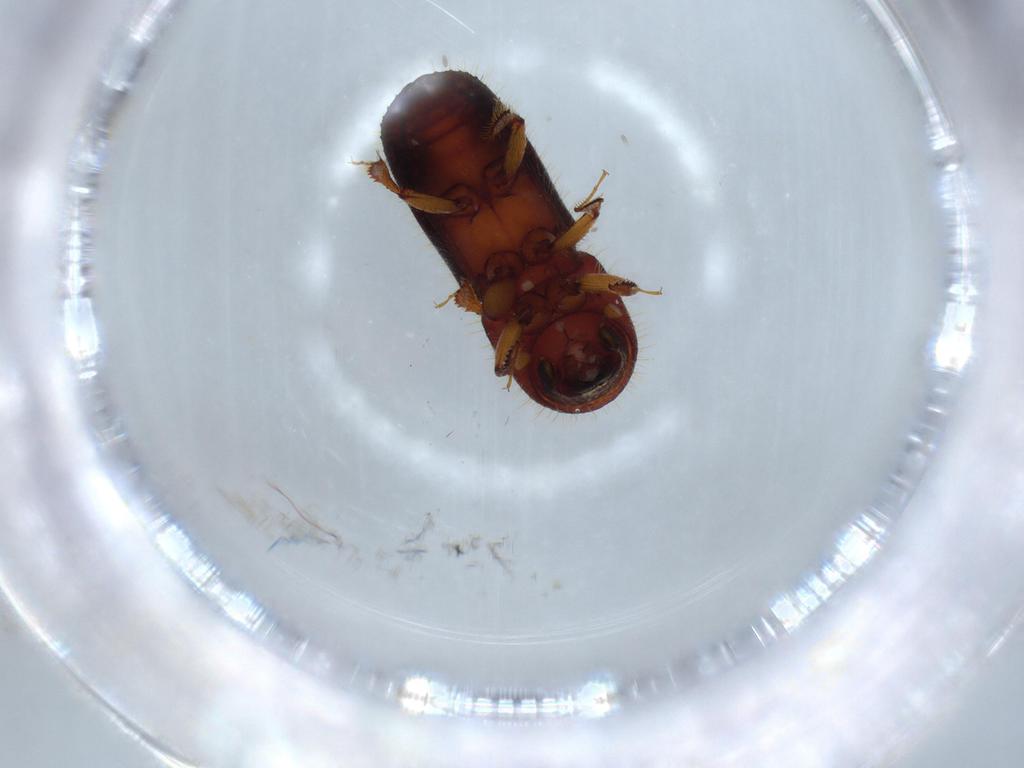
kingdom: Animalia
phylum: Arthropoda
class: Insecta
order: Coleoptera
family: Curculionidae
